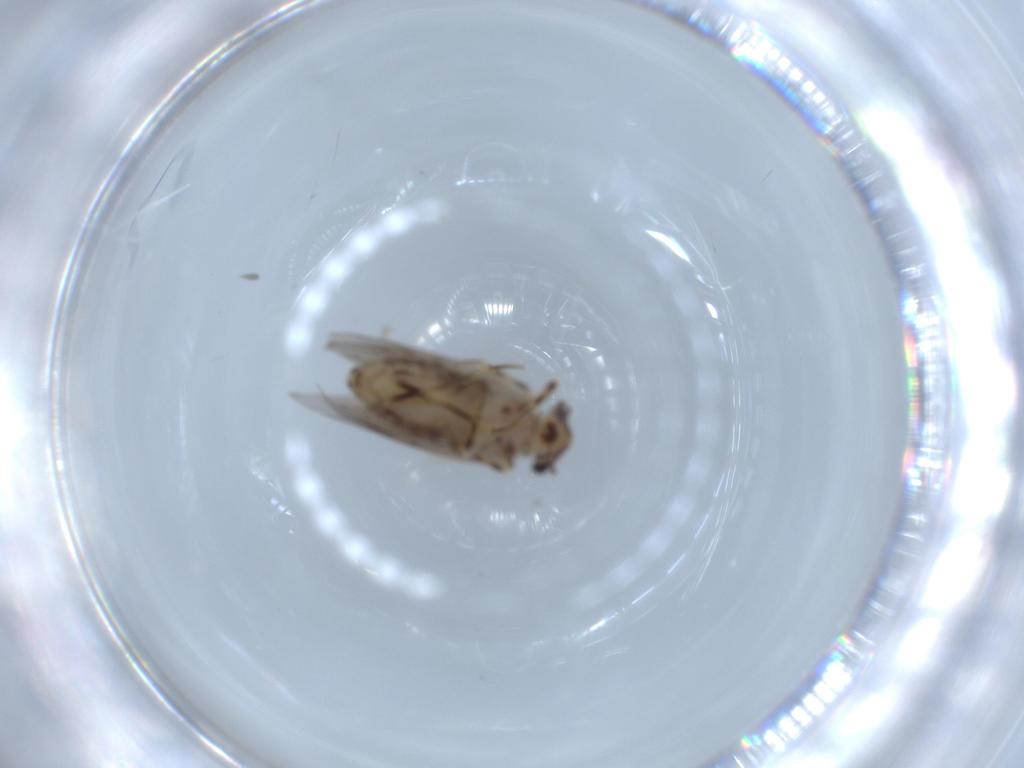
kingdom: Animalia
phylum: Arthropoda
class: Insecta
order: Psocodea
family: Lepidopsocidae
